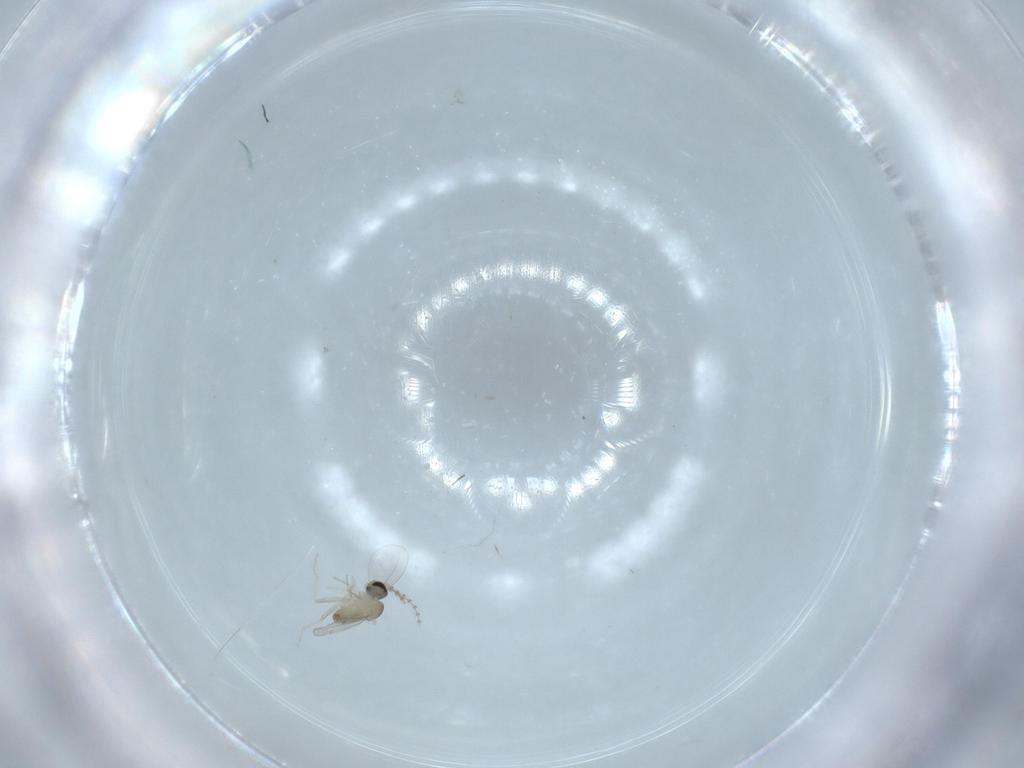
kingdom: Animalia
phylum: Arthropoda
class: Insecta
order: Diptera
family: Cecidomyiidae
